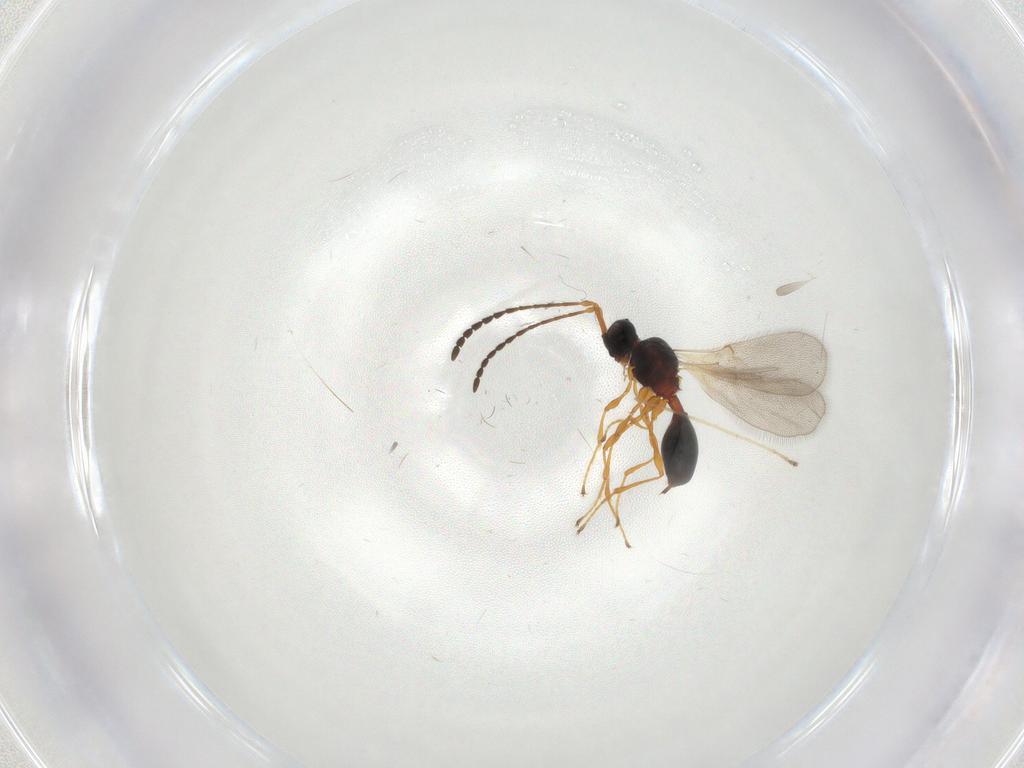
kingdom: Animalia
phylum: Arthropoda
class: Insecta
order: Hymenoptera
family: Diapriidae
